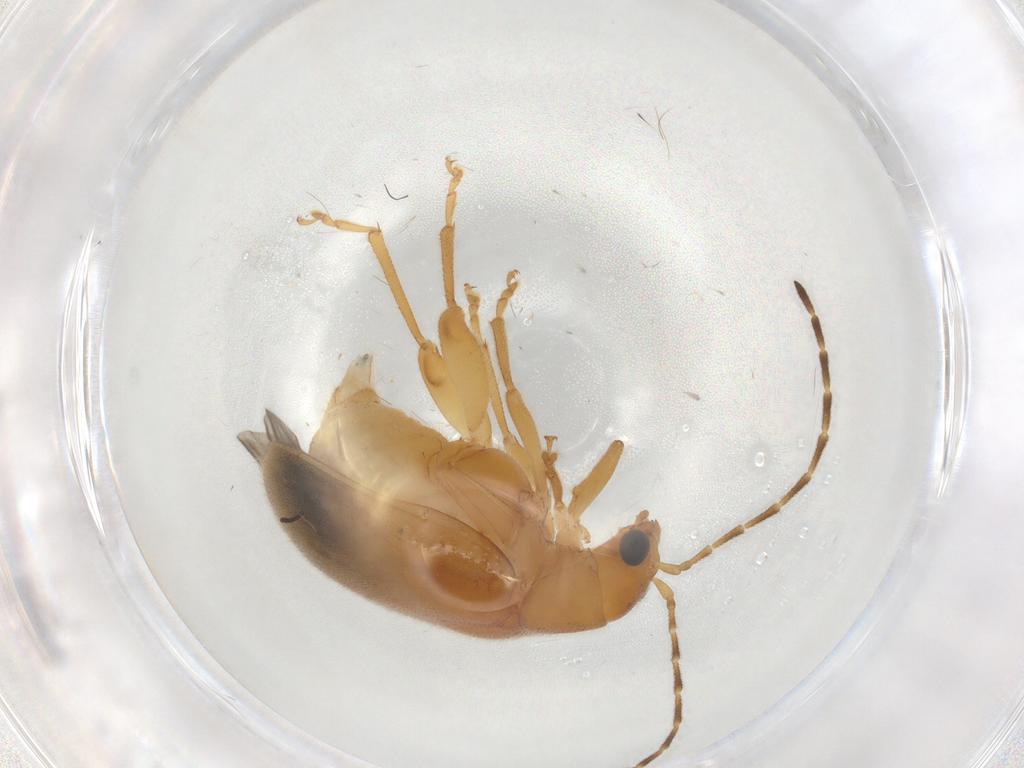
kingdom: Animalia
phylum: Arthropoda
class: Insecta
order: Coleoptera
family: Chrysomelidae
